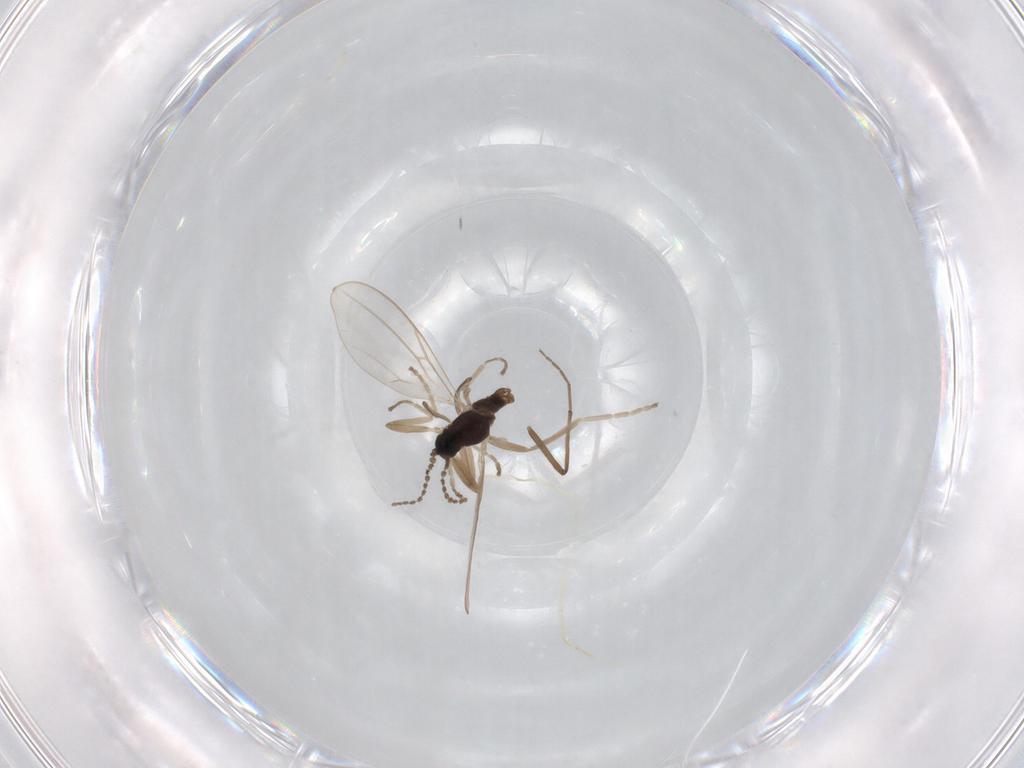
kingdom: Animalia
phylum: Arthropoda
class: Insecta
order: Diptera
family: Cecidomyiidae
